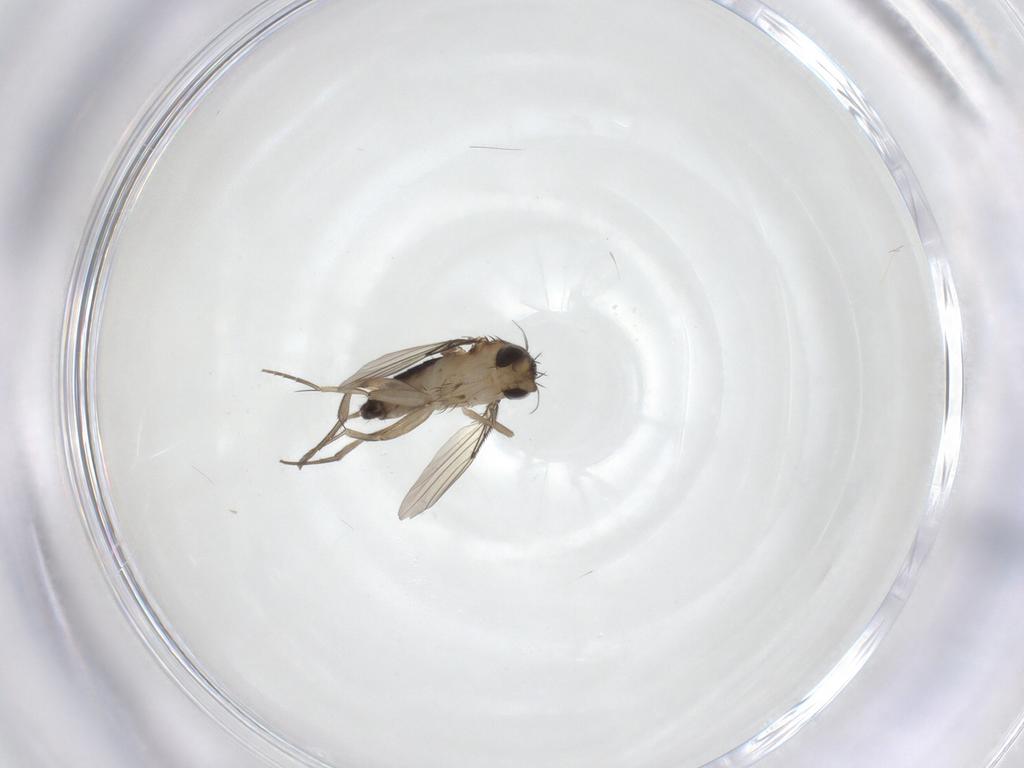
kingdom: Animalia
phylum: Arthropoda
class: Insecta
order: Diptera
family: Phoridae
